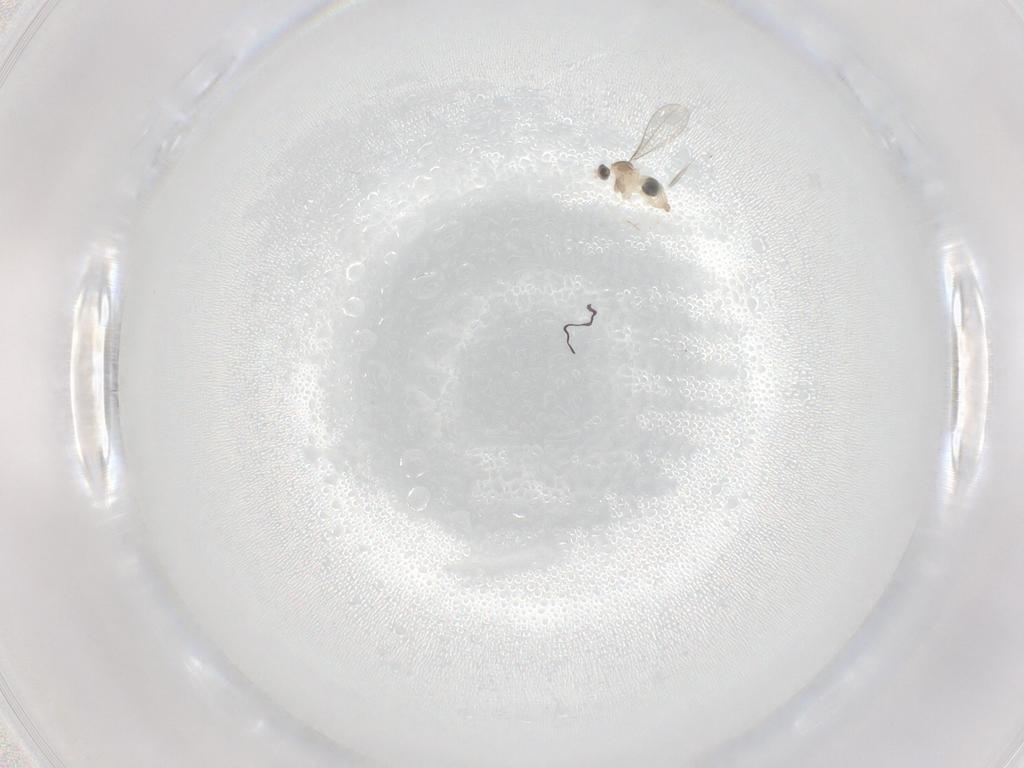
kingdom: Animalia
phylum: Arthropoda
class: Insecta
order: Diptera
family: Cecidomyiidae
